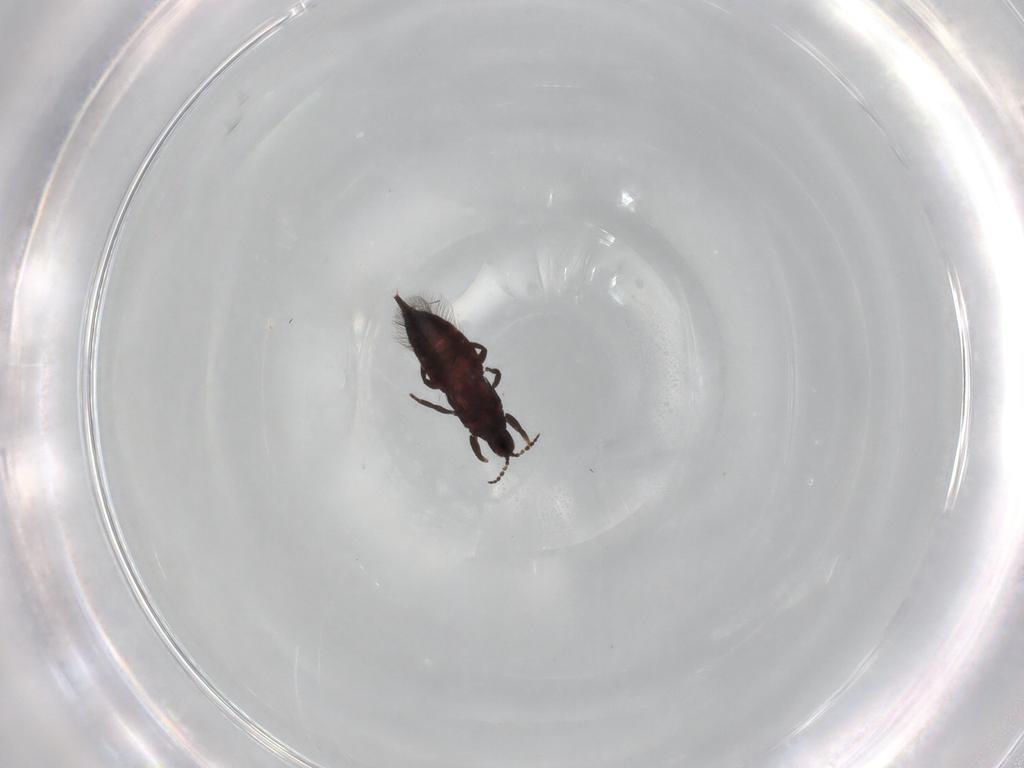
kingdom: Animalia
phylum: Arthropoda
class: Insecta
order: Thysanoptera
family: Phlaeothripidae
